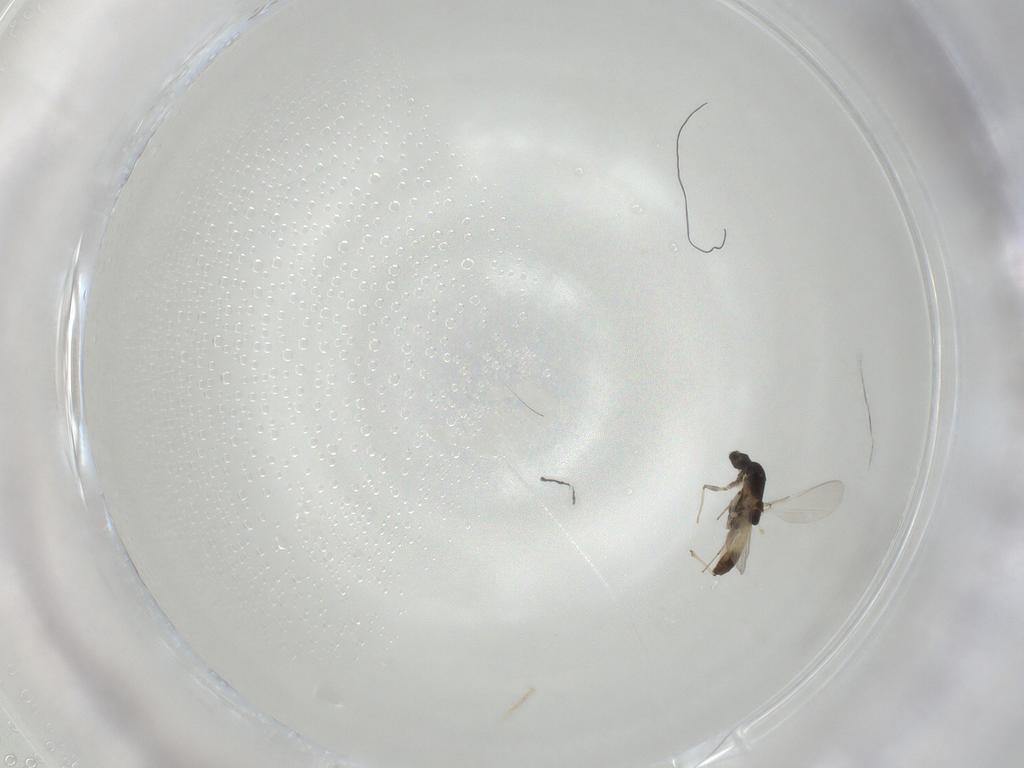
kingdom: Animalia
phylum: Arthropoda
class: Insecta
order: Diptera
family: Chironomidae
